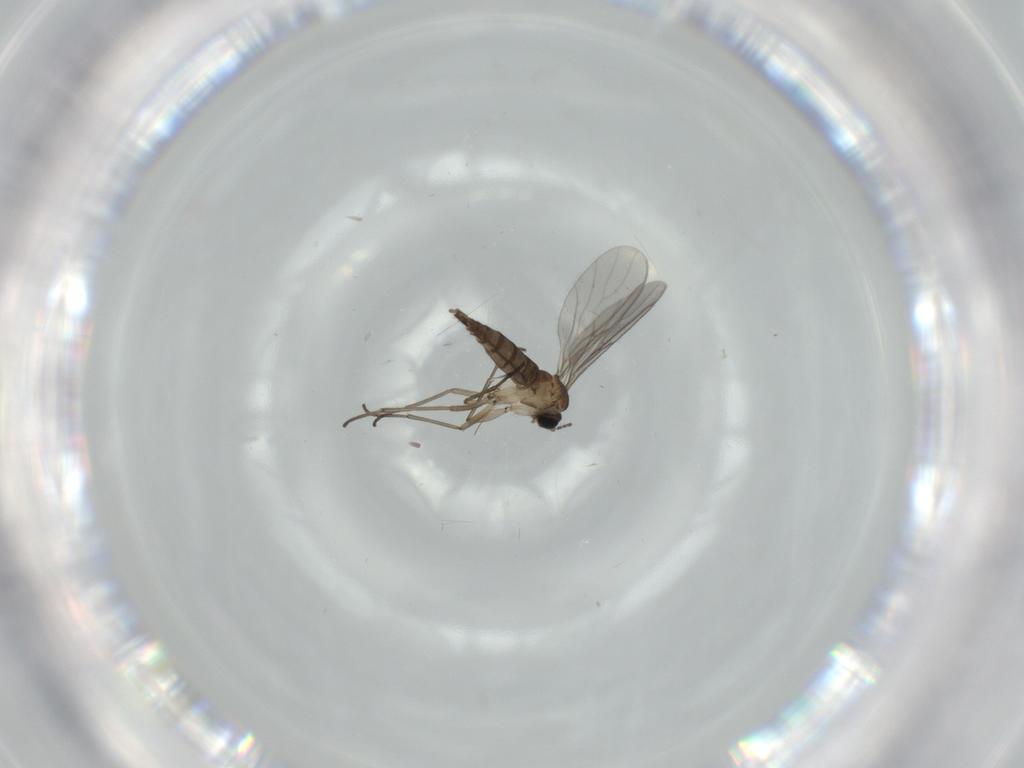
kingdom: Animalia
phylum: Arthropoda
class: Insecta
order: Diptera
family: Sciaridae
